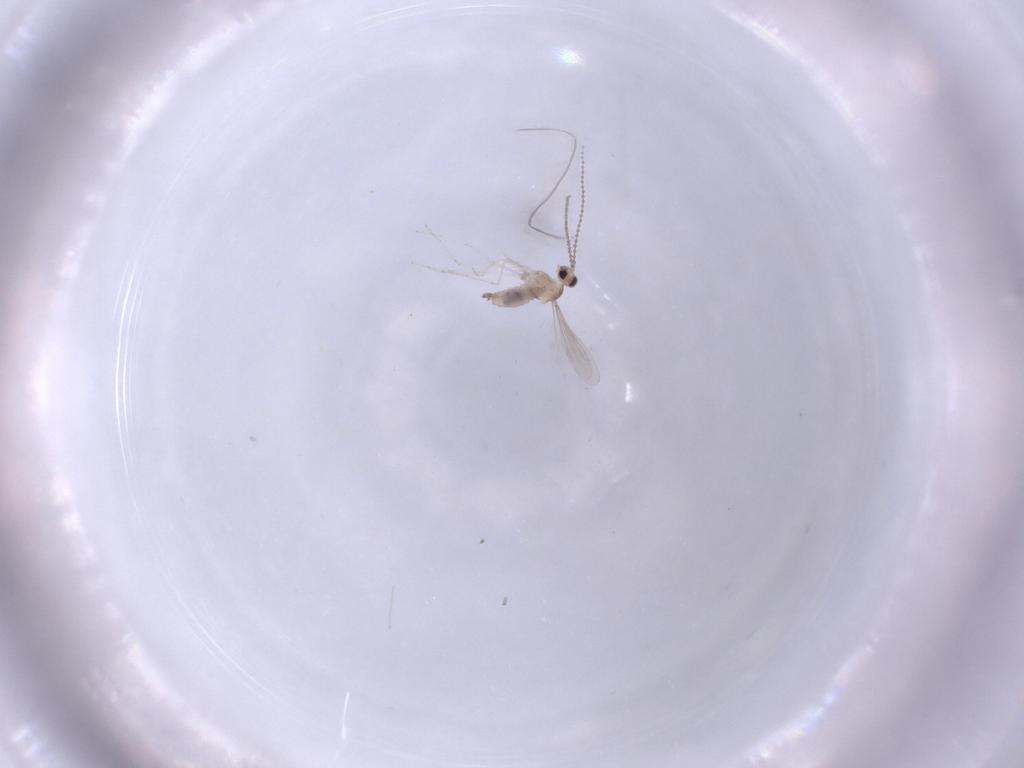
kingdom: Animalia
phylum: Arthropoda
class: Insecta
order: Diptera
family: Cecidomyiidae
